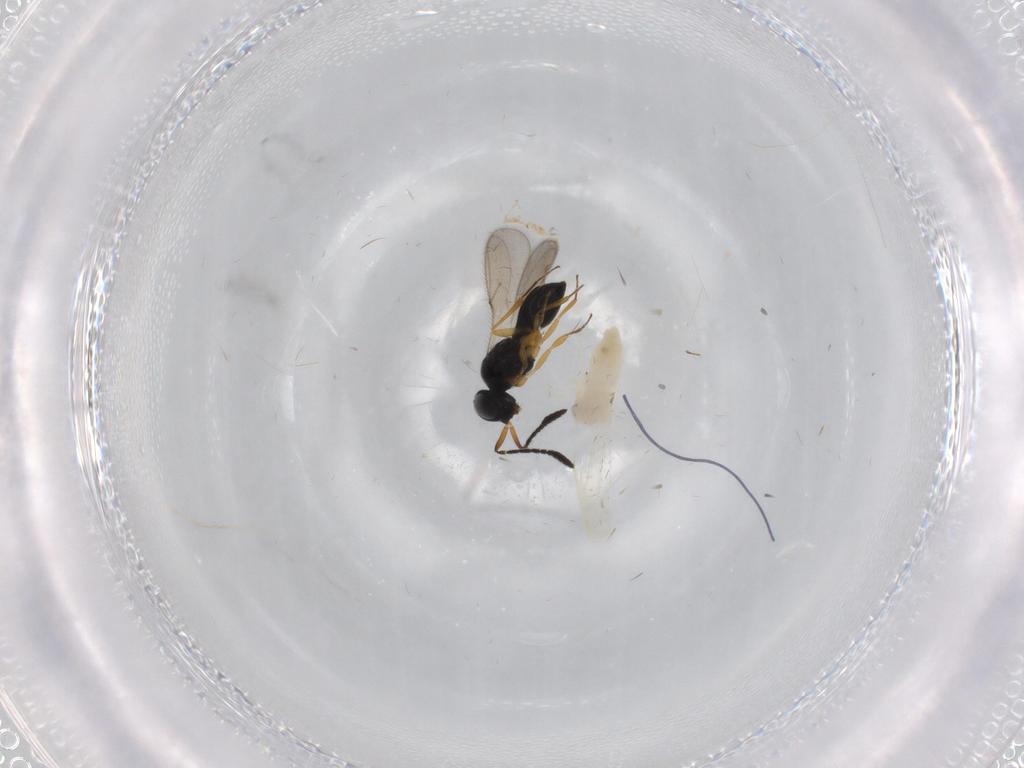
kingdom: Animalia
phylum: Arthropoda
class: Insecta
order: Hymenoptera
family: Scelionidae
